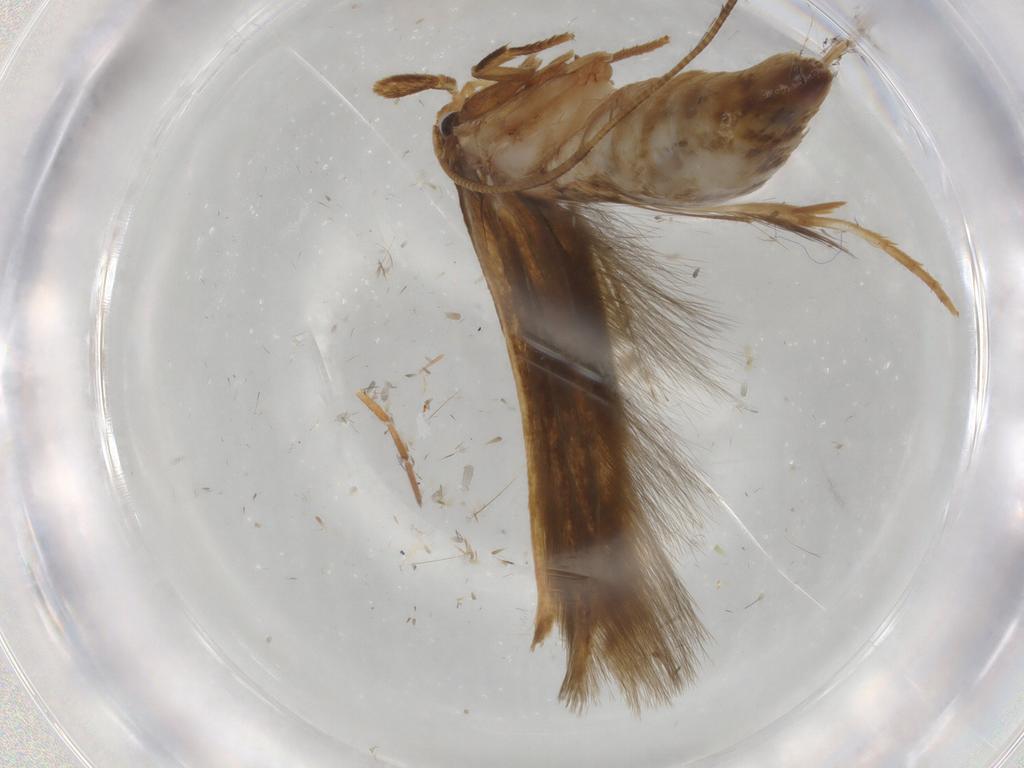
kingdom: Animalia
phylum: Arthropoda
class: Insecta
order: Lepidoptera
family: Tineidae
